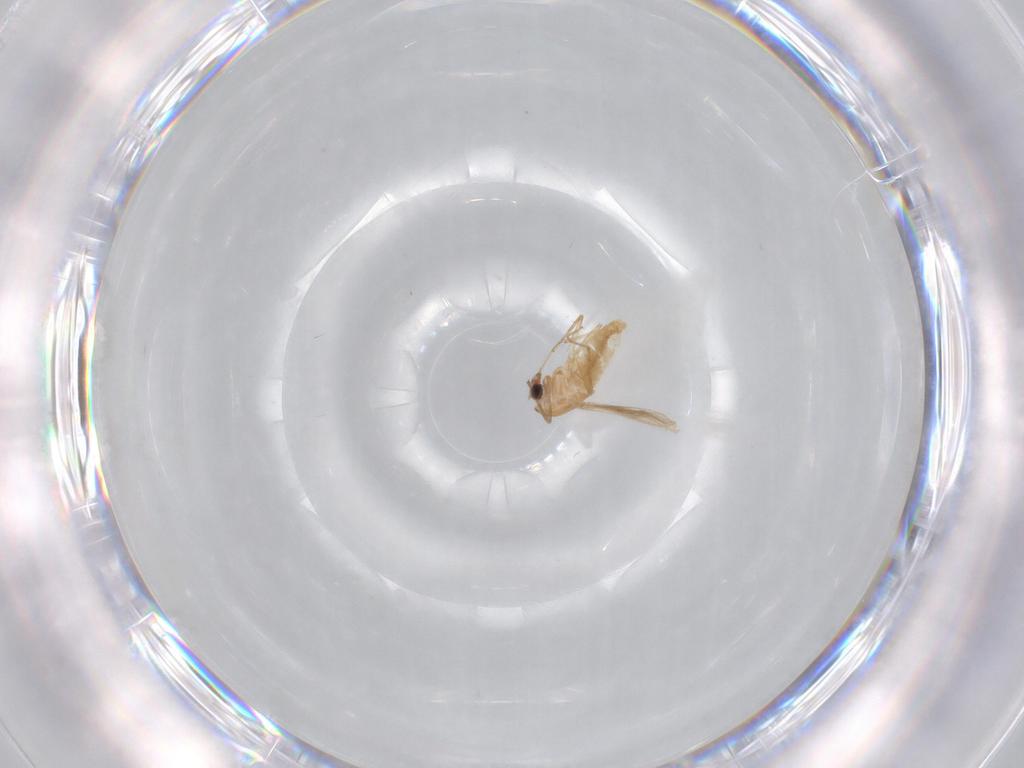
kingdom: Animalia
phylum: Arthropoda
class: Insecta
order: Diptera
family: Chironomidae
